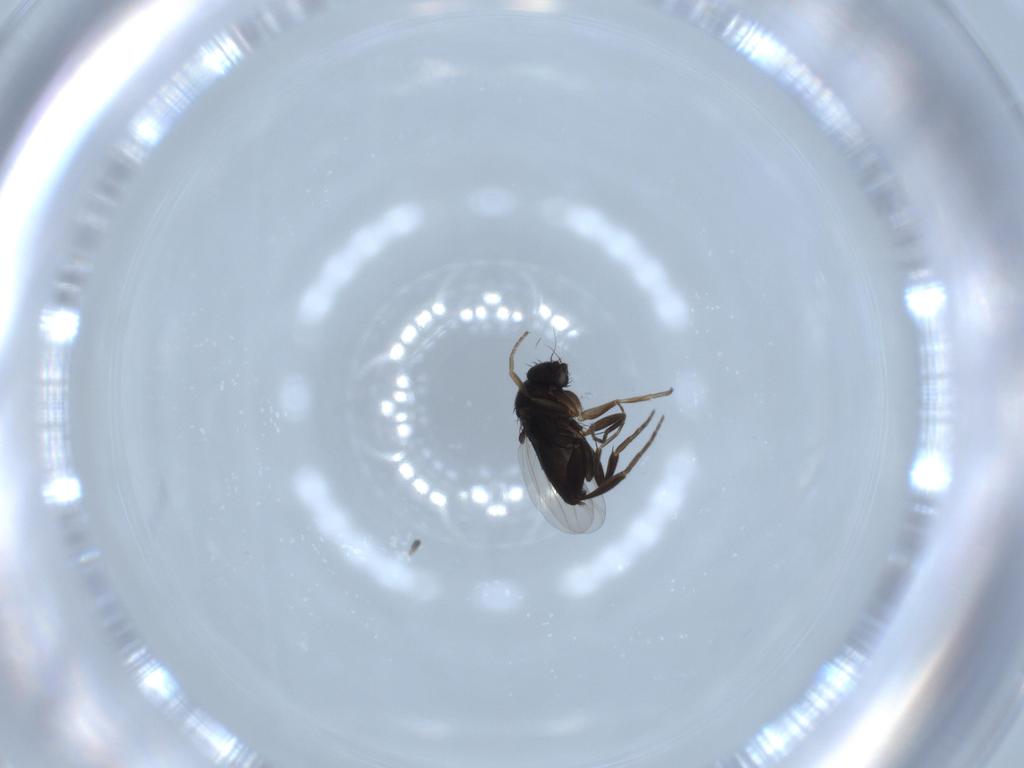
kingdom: Animalia
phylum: Arthropoda
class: Insecta
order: Diptera
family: Phoridae
